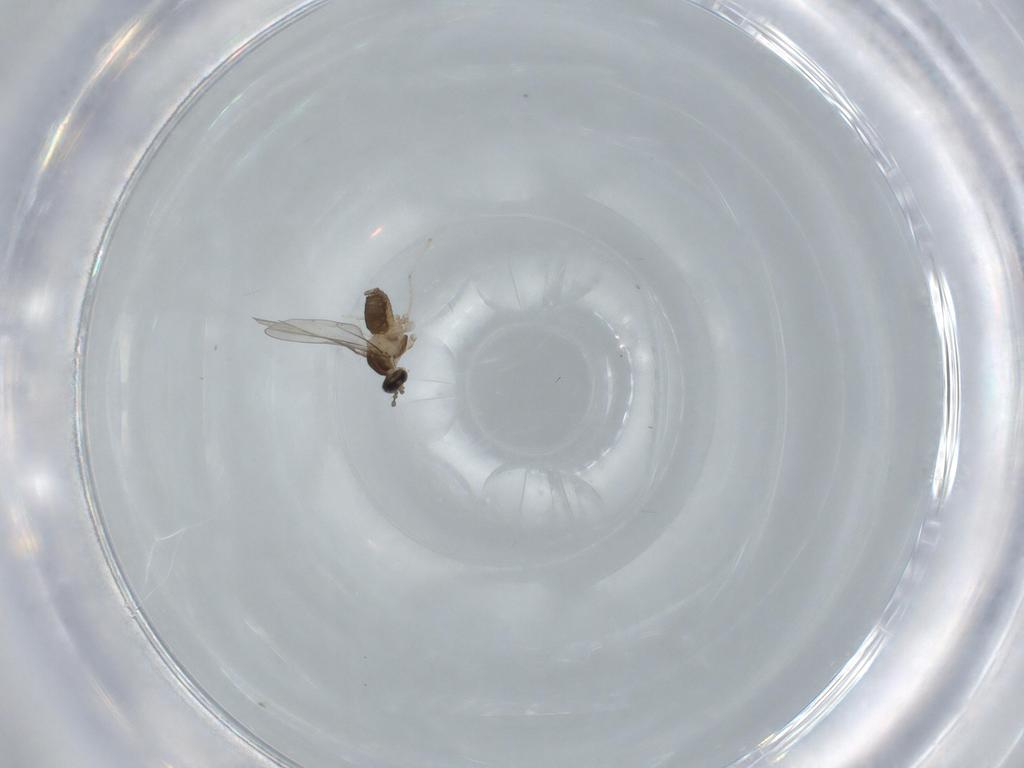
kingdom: Animalia
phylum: Arthropoda
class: Insecta
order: Diptera
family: Cecidomyiidae
